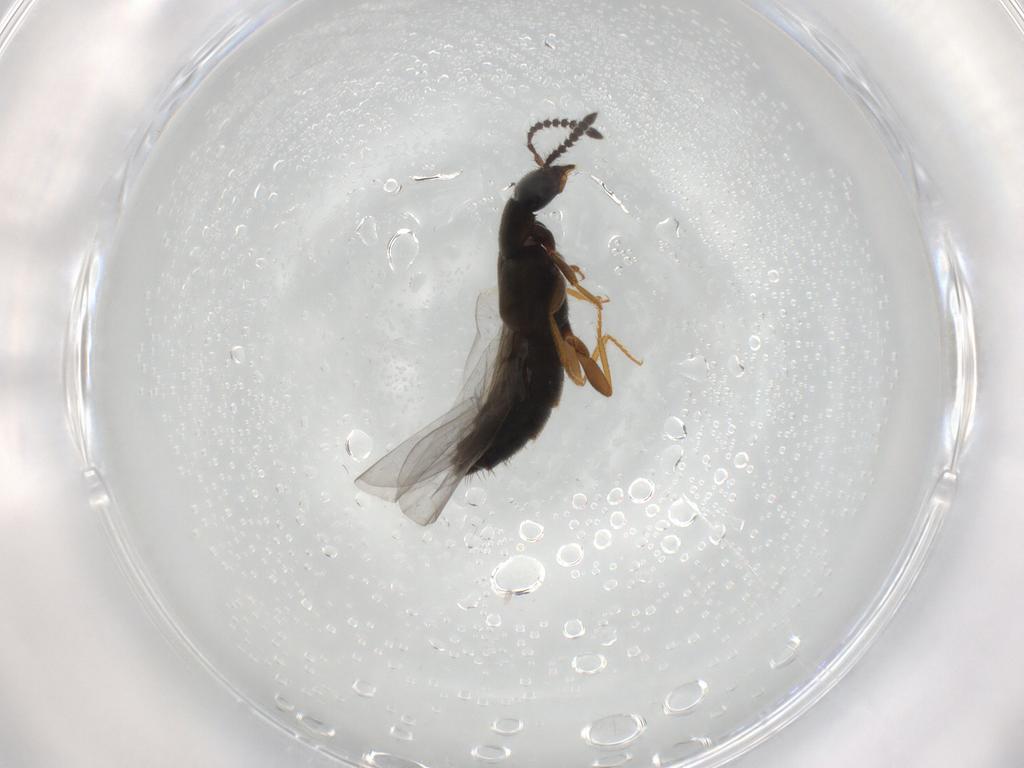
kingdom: Animalia
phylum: Arthropoda
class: Insecta
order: Coleoptera
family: Staphylinidae
